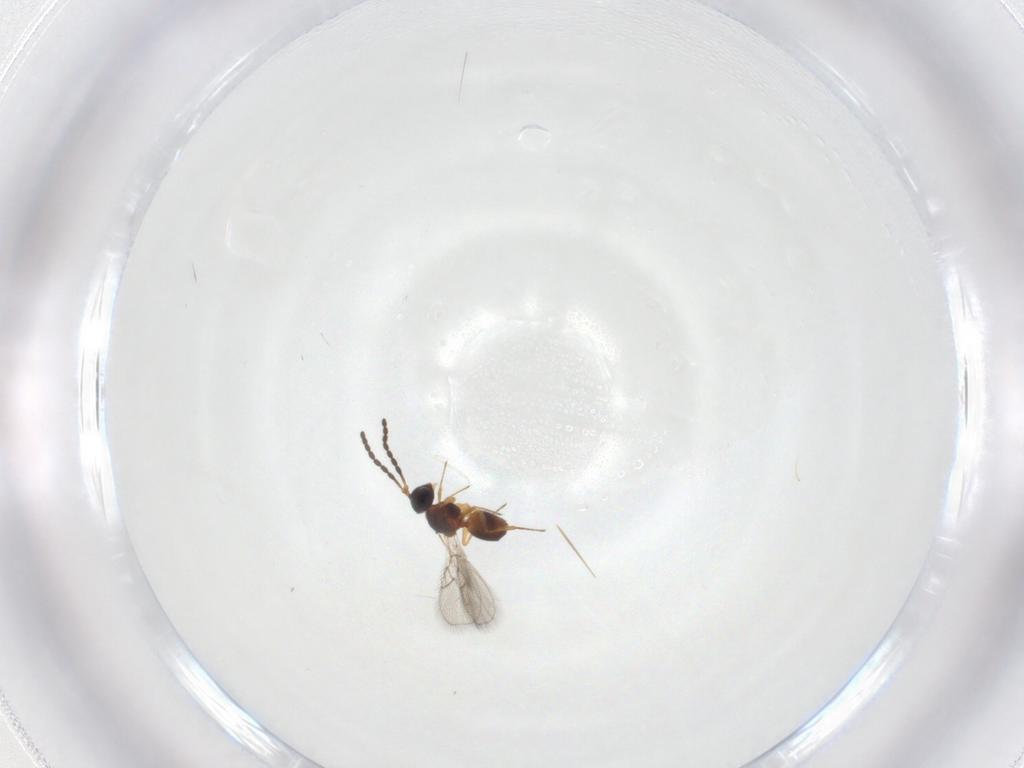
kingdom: Animalia
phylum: Arthropoda
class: Insecta
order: Hymenoptera
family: Figitidae
